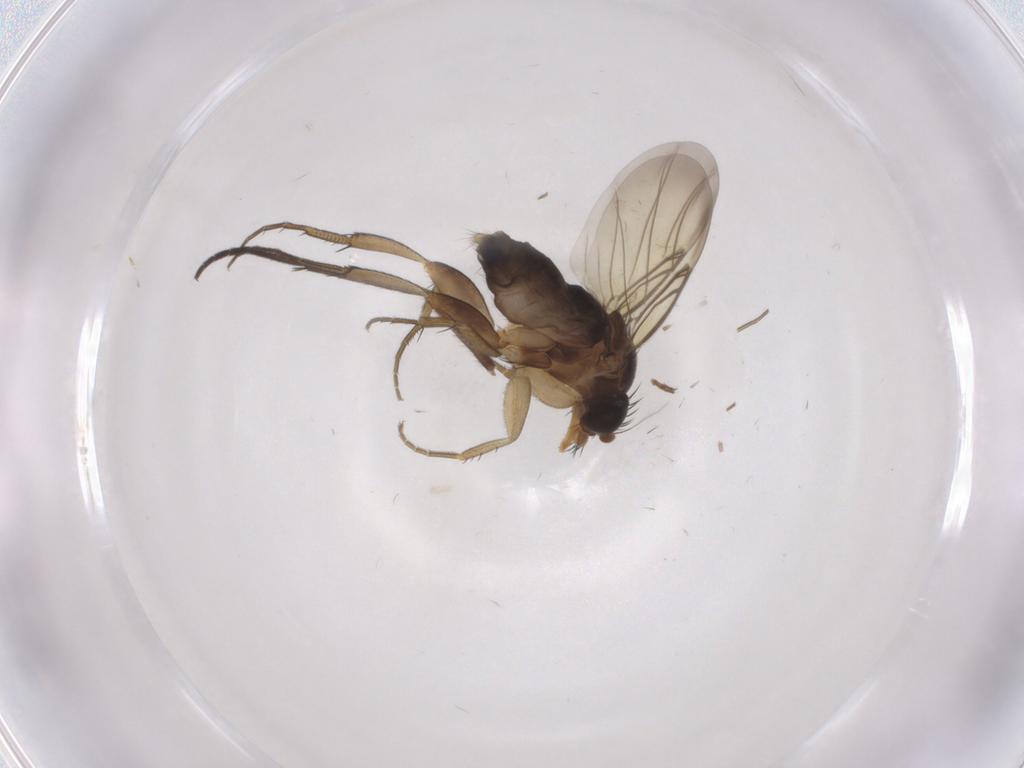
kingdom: Animalia
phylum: Arthropoda
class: Insecta
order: Diptera
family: Phoridae
